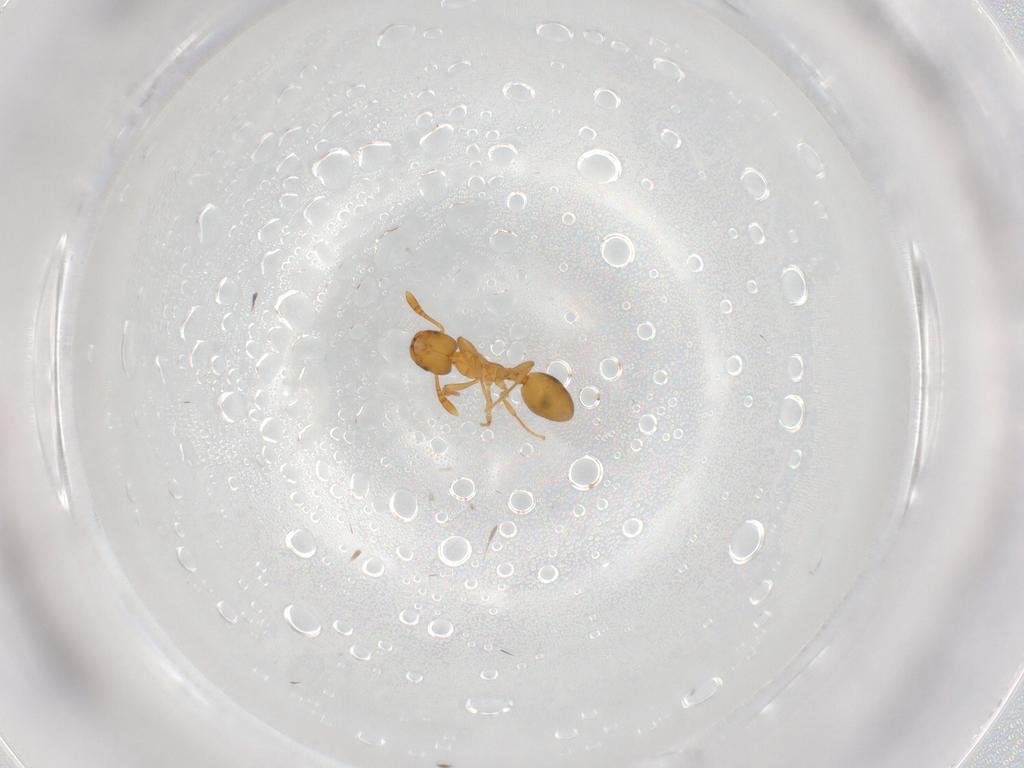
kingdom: Animalia
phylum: Arthropoda
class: Insecta
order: Hymenoptera
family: Formicidae
